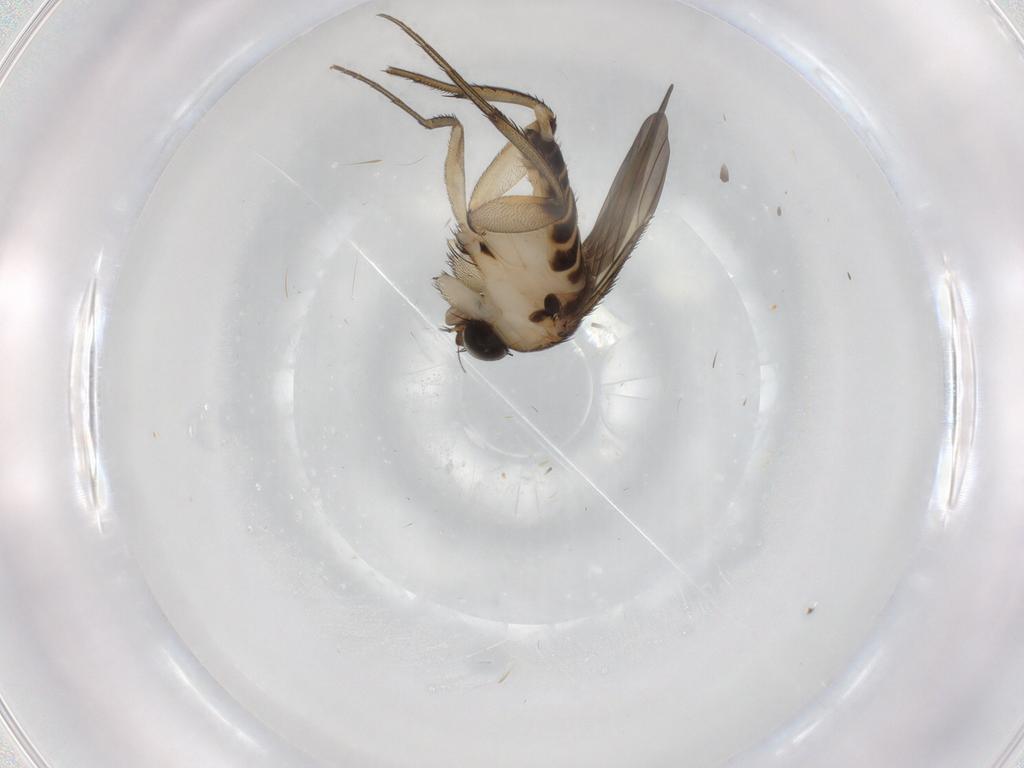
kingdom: Animalia
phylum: Arthropoda
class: Insecta
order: Diptera
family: Phoridae
